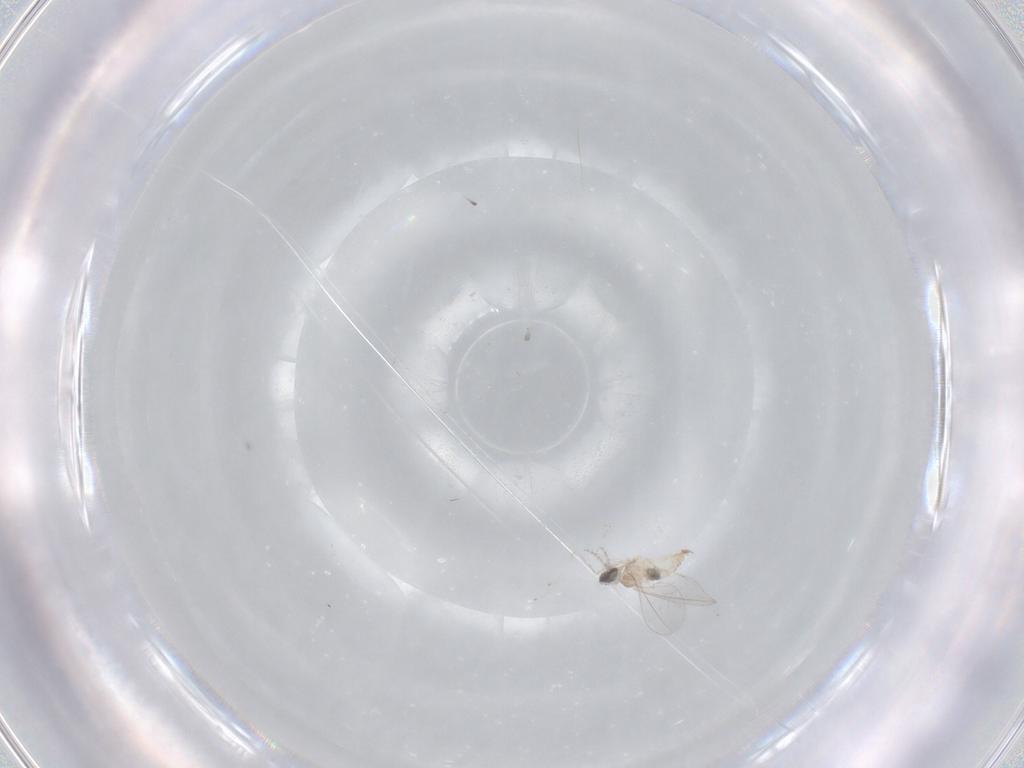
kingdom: Animalia
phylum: Arthropoda
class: Insecta
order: Diptera
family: Cecidomyiidae
